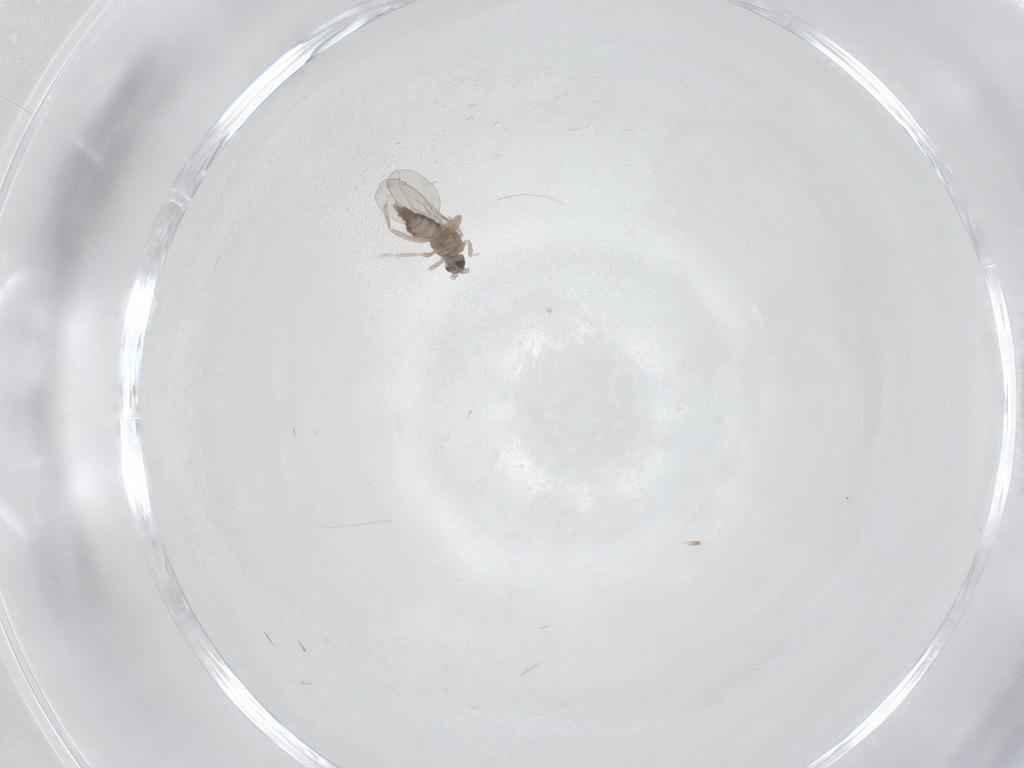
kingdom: Animalia
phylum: Arthropoda
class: Insecta
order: Diptera
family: Cecidomyiidae
